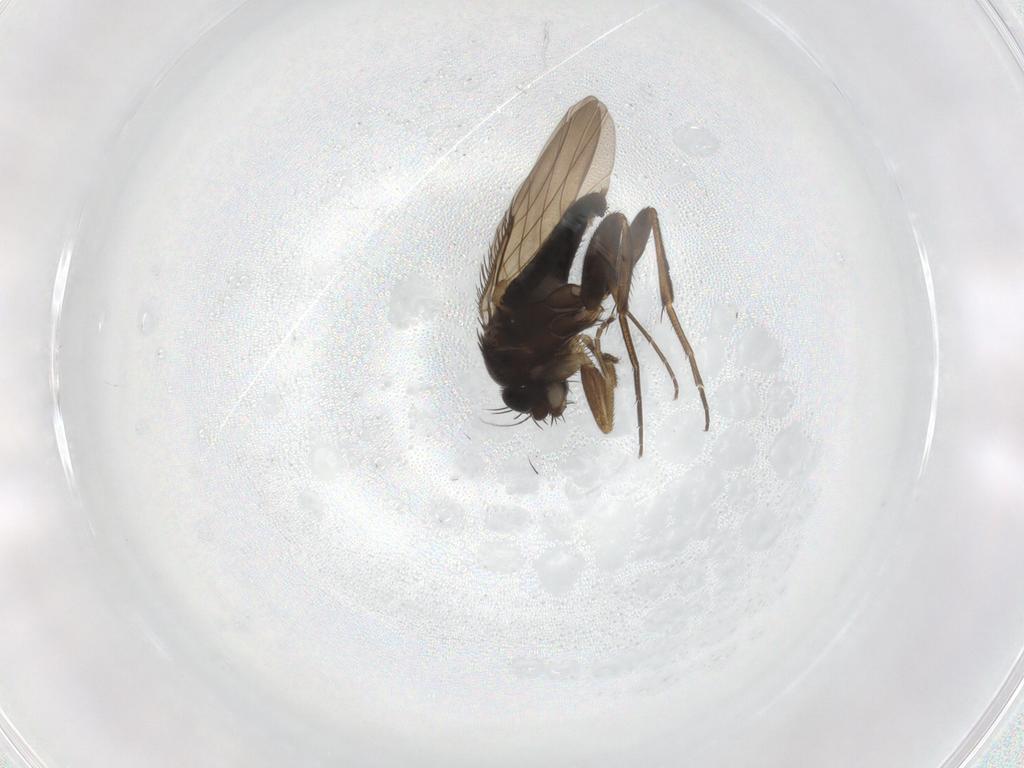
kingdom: Animalia
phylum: Arthropoda
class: Insecta
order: Diptera
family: Phoridae
